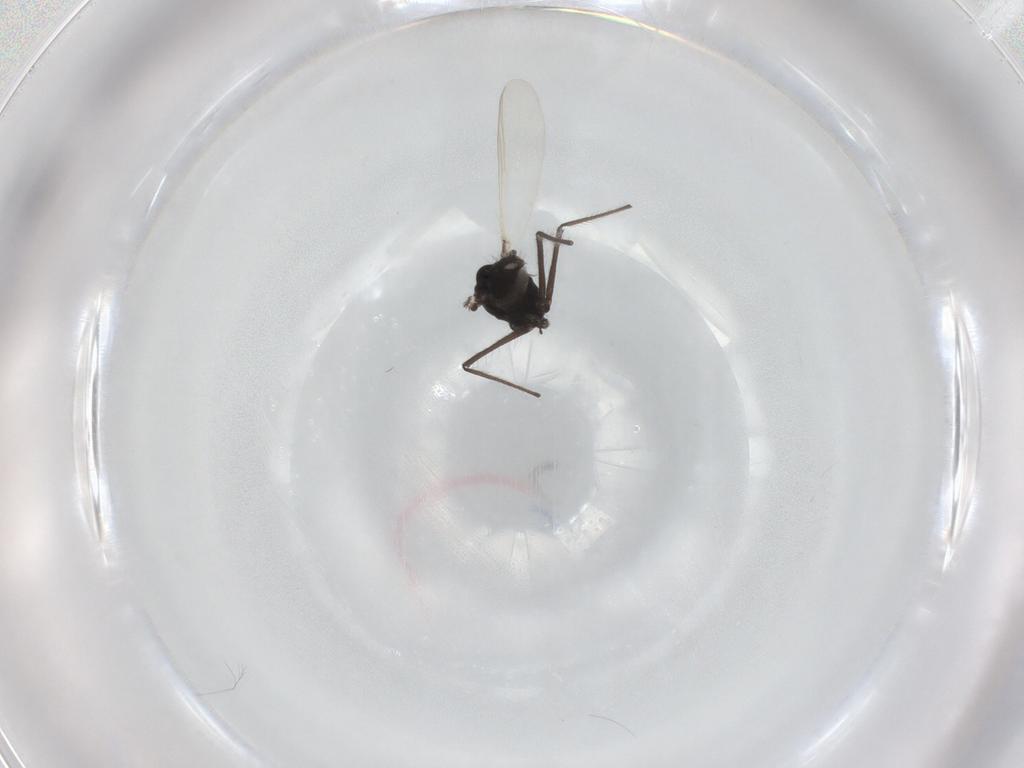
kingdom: Animalia
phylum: Arthropoda
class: Insecta
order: Diptera
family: Chironomidae
